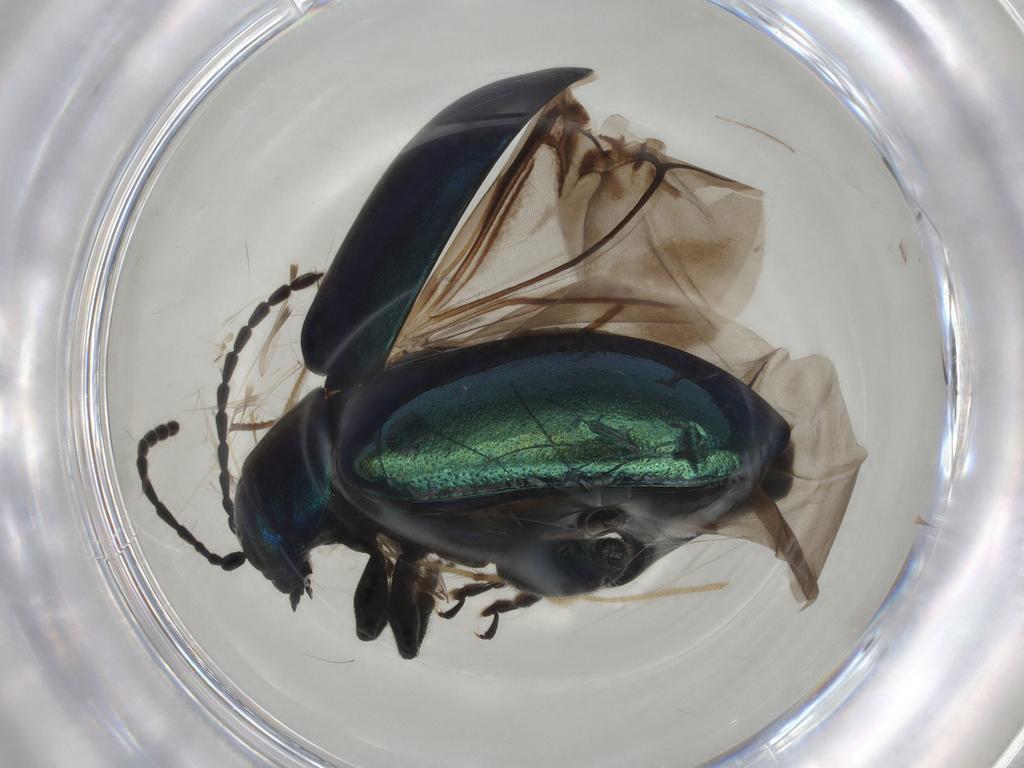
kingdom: Animalia
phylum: Arthropoda
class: Insecta
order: Coleoptera
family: Chrysomelidae
